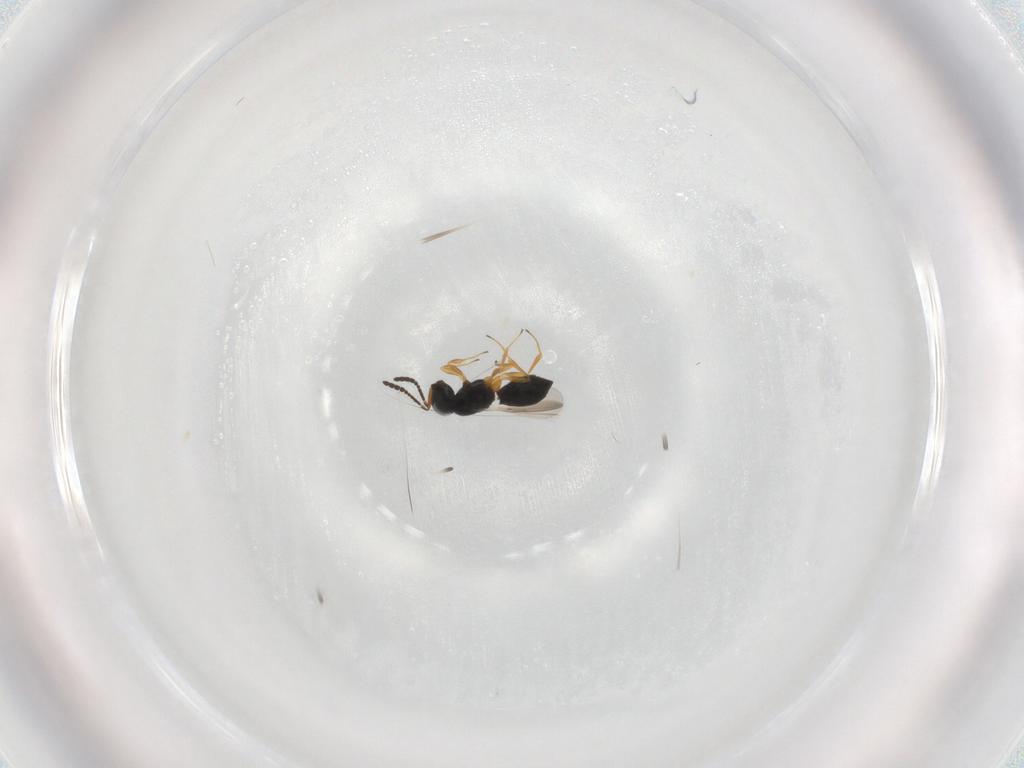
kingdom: Animalia
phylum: Arthropoda
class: Insecta
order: Hymenoptera
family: Scelionidae
